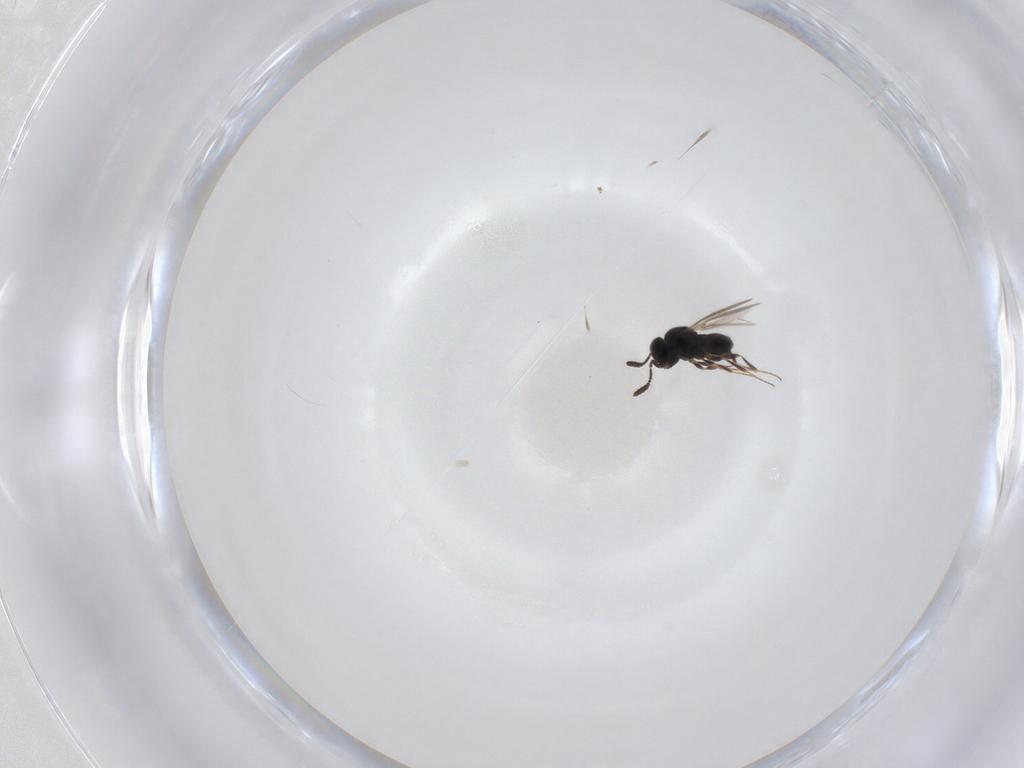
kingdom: Animalia
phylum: Arthropoda
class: Insecta
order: Hymenoptera
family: Scelionidae
